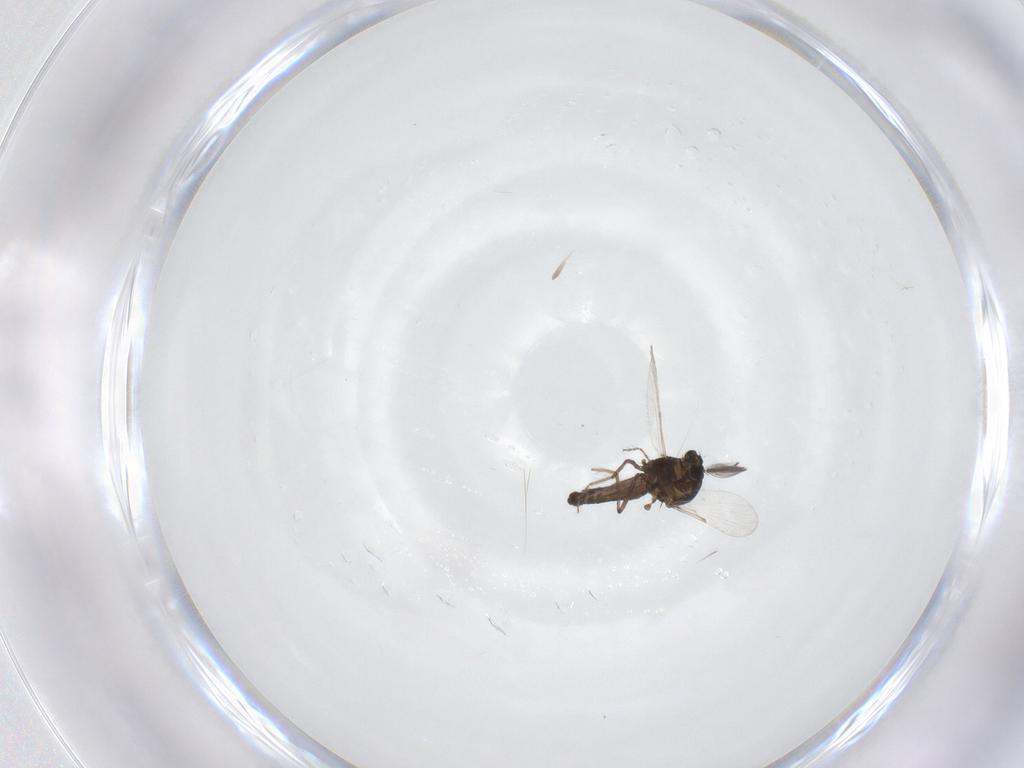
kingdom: Animalia
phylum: Arthropoda
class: Insecta
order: Diptera
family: Ceratopogonidae
